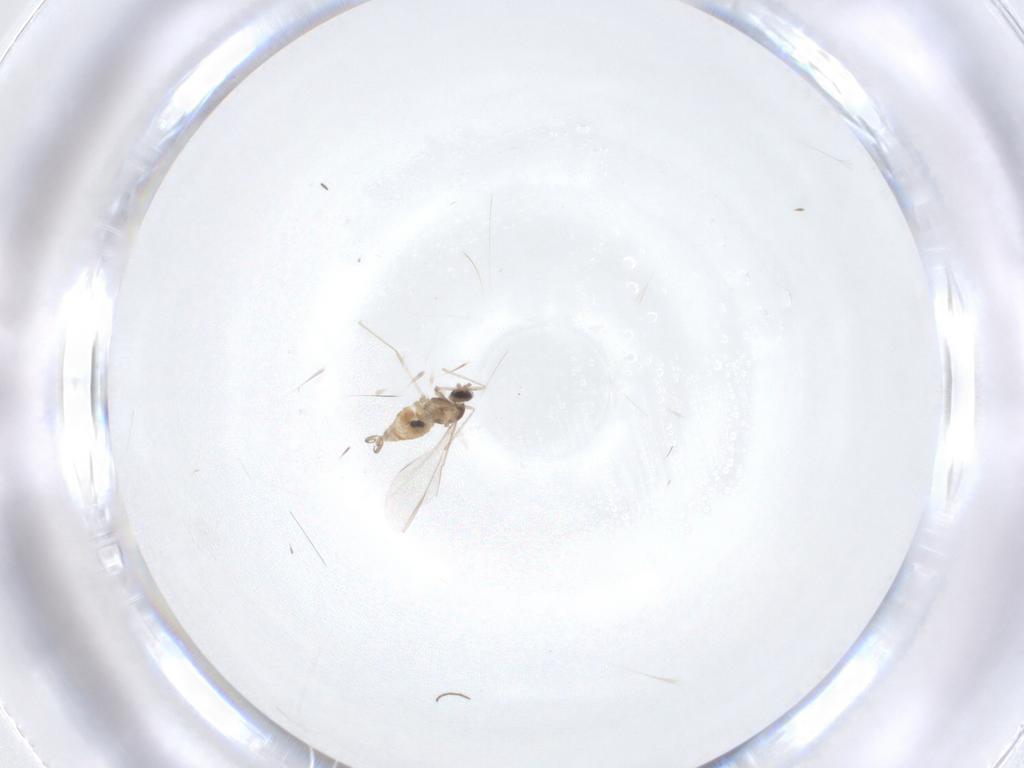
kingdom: Animalia
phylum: Arthropoda
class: Insecta
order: Diptera
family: Cecidomyiidae
